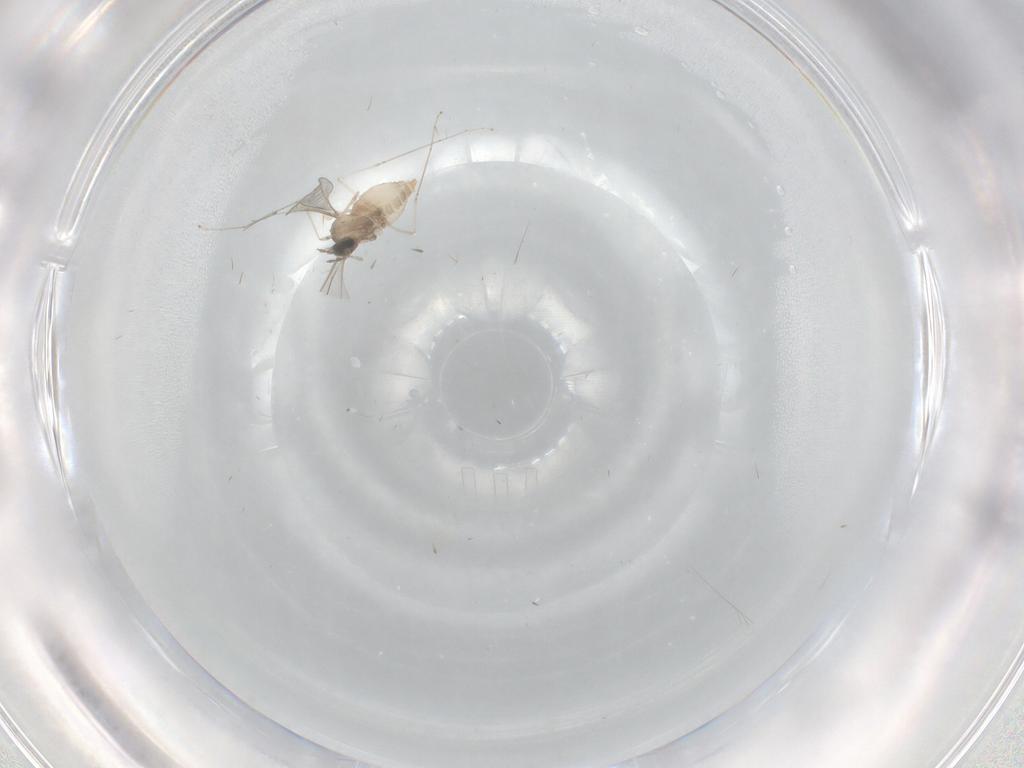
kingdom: Animalia
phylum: Arthropoda
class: Insecta
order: Diptera
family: Cecidomyiidae
